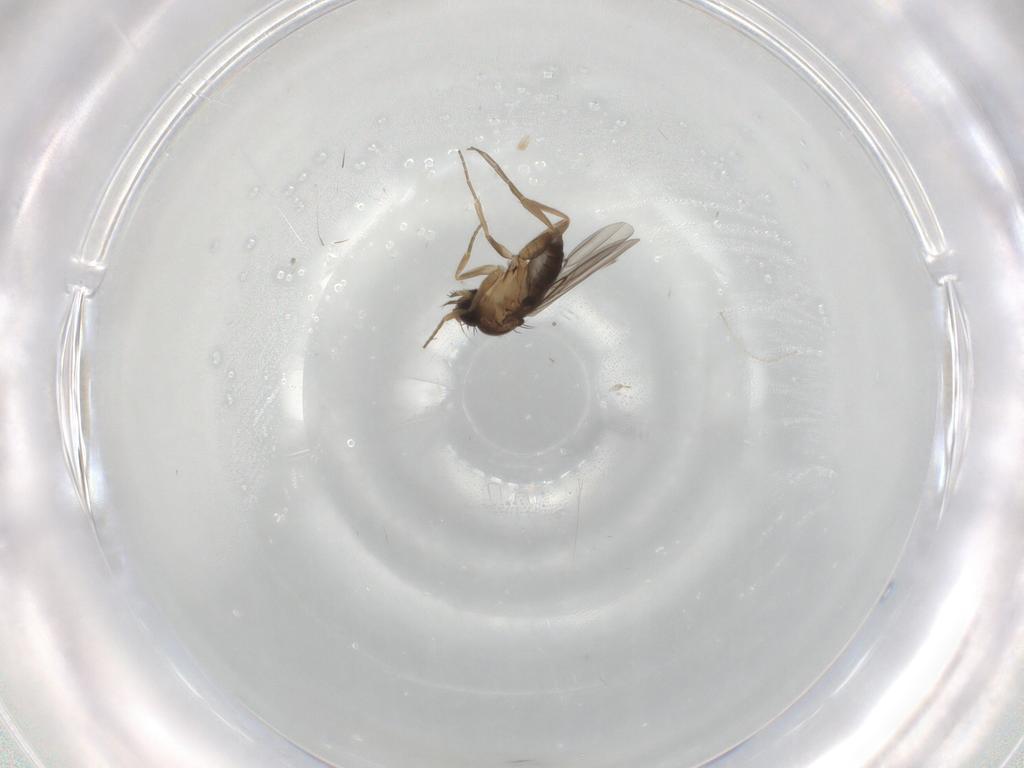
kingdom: Animalia
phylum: Arthropoda
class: Insecta
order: Diptera
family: Cecidomyiidae
